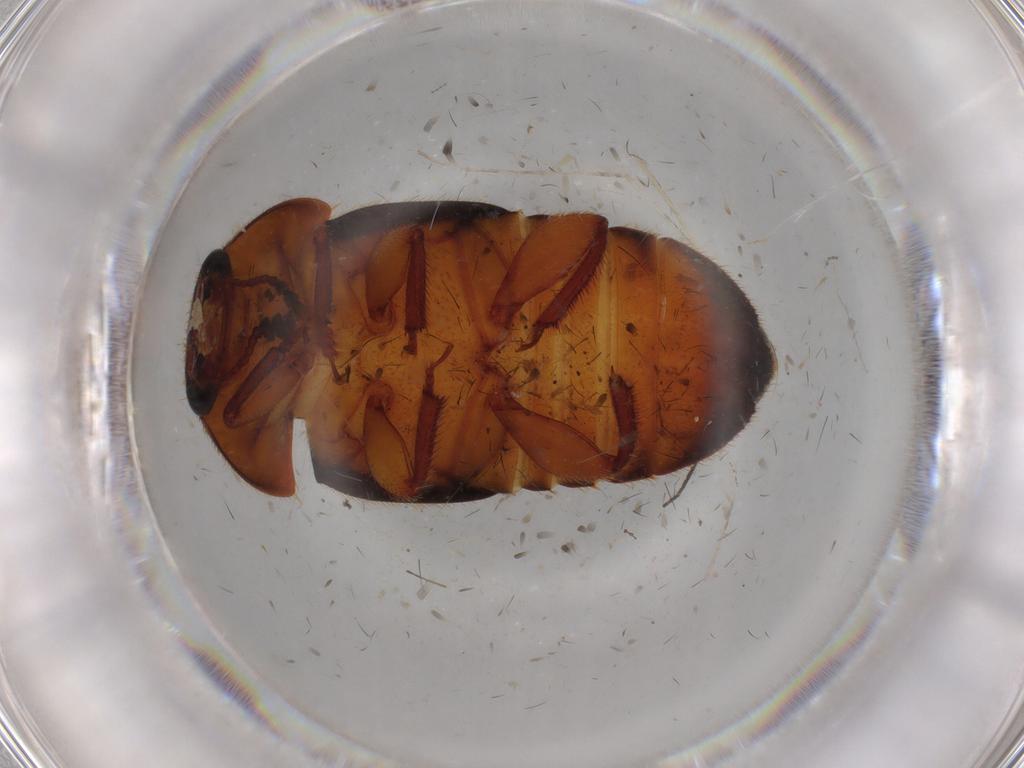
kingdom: Animalia
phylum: Arthropoda
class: Insecta
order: Coleoptera
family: Nitidulidae
